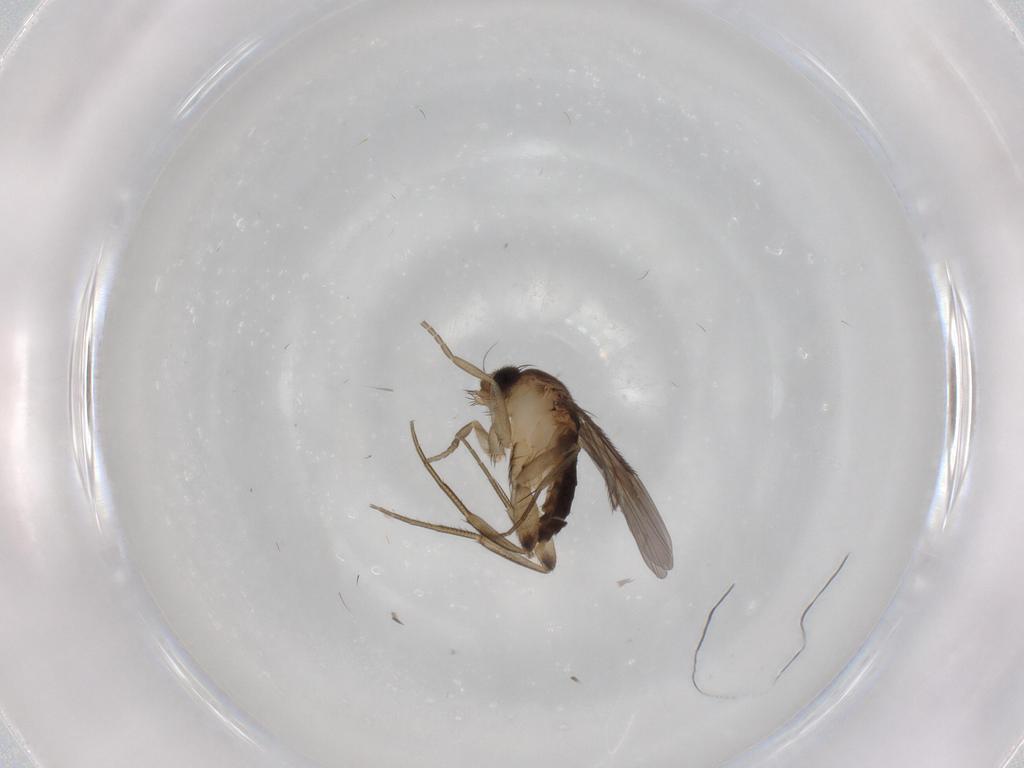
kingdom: Animalia
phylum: Arthropoda
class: Insecta
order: Diptera
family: Phoridae
